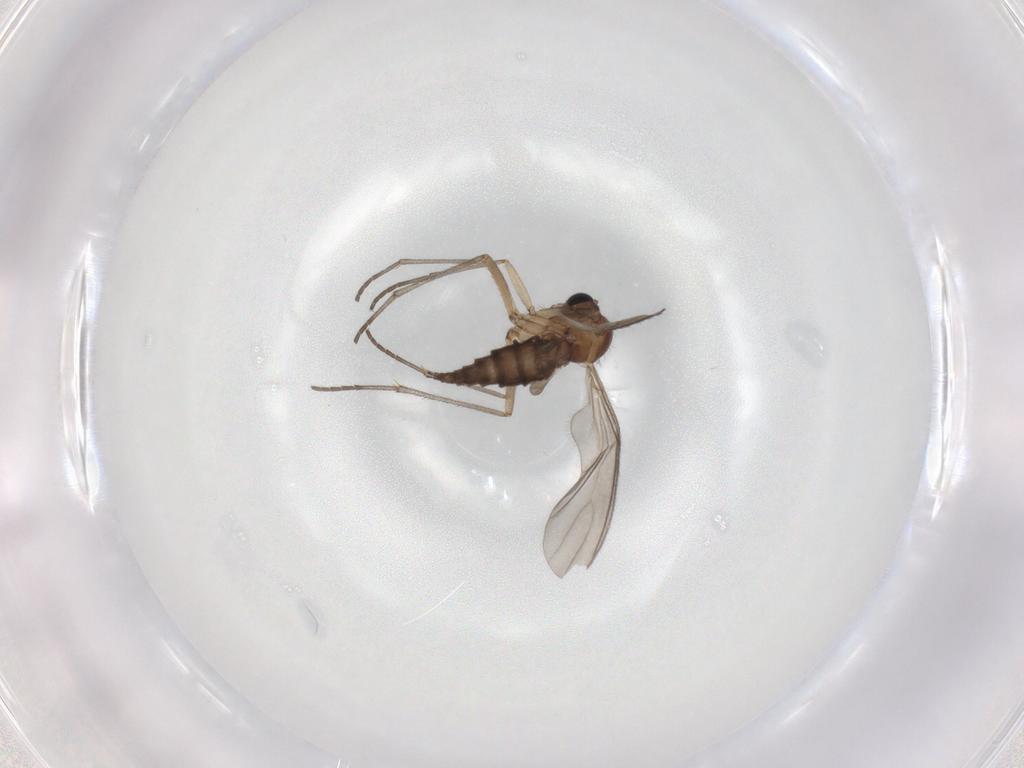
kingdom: Animalia
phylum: Arthropoda
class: Insecta
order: Diptera
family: Sciaridae
